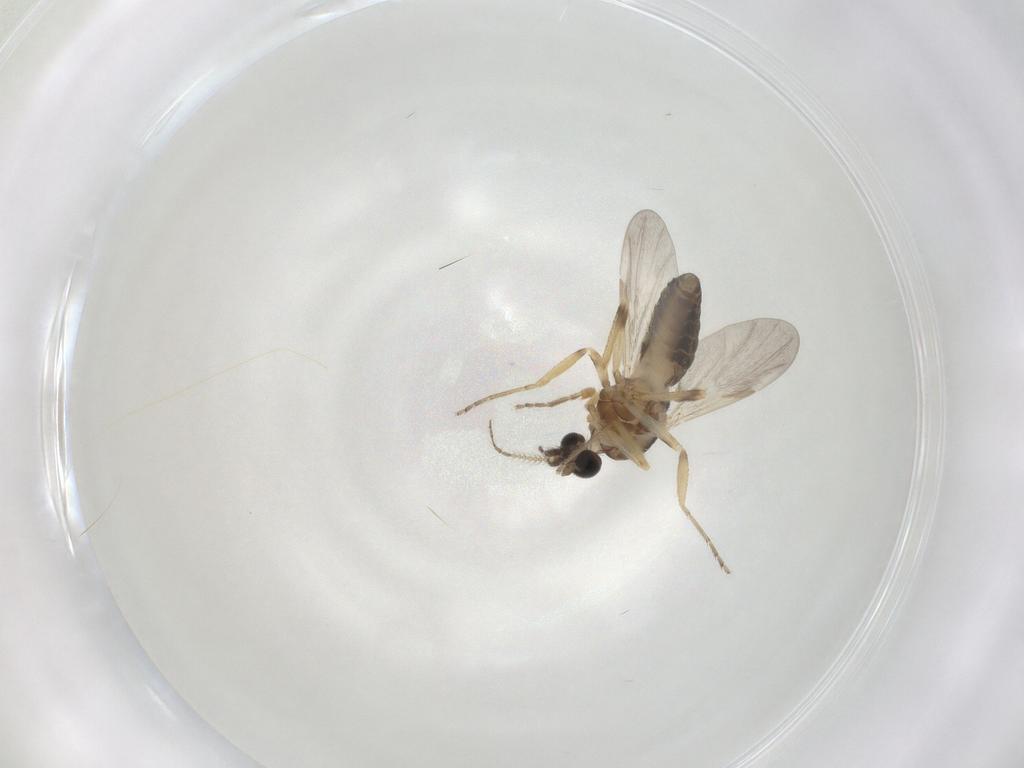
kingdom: Animalia
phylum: Arthropoda
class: Insecta
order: Diptera
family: Ceratopogonidae
